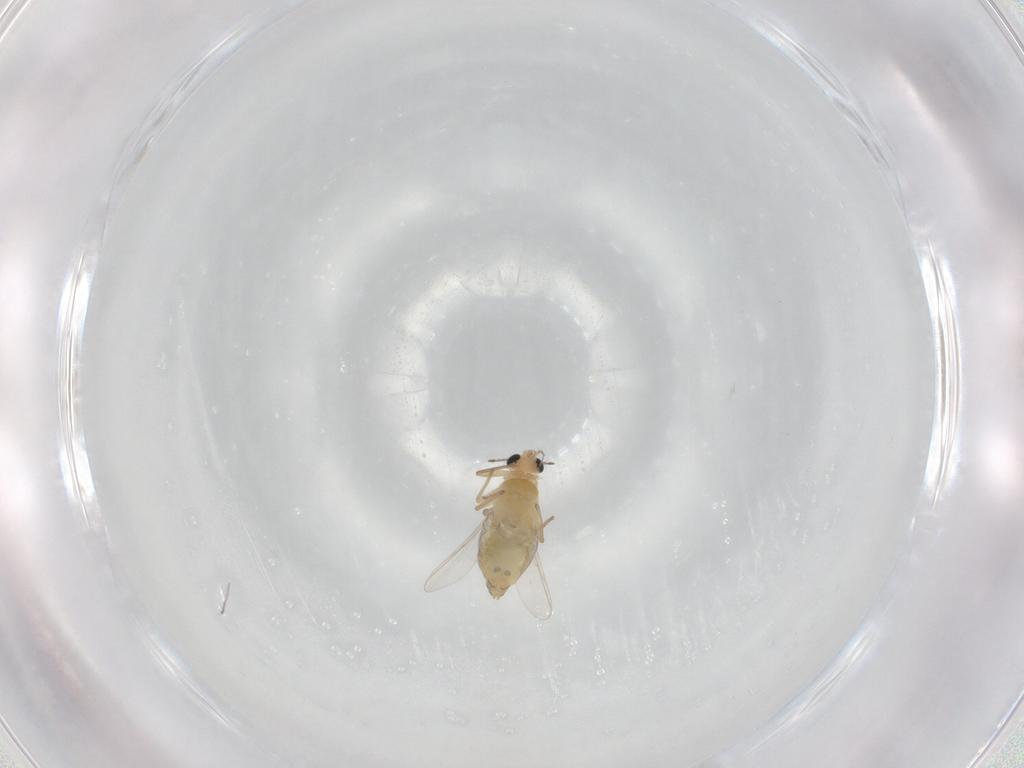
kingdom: Animalia
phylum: Arthropoda
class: Insecta
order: Diptera
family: Chironomidae
